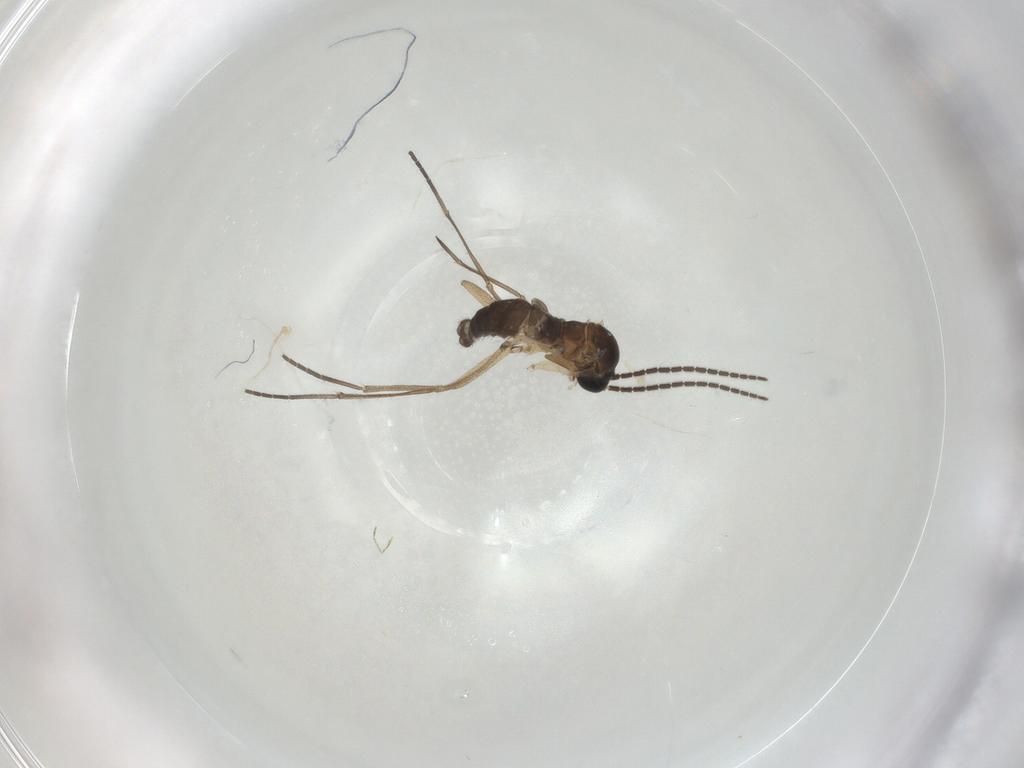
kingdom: Animalia
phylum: Arthropoda
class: Insecta
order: Diptera
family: Sciaridae
